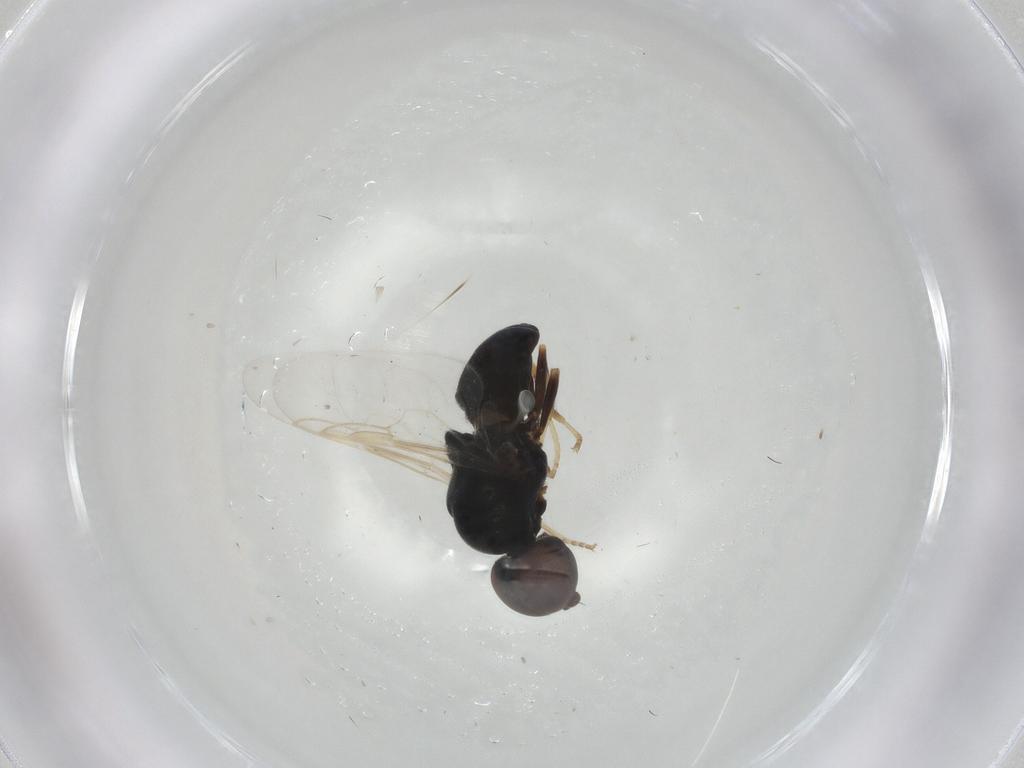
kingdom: Animalia
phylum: Arthropoda
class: Insecta
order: Diptera
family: Stratiomyidae
